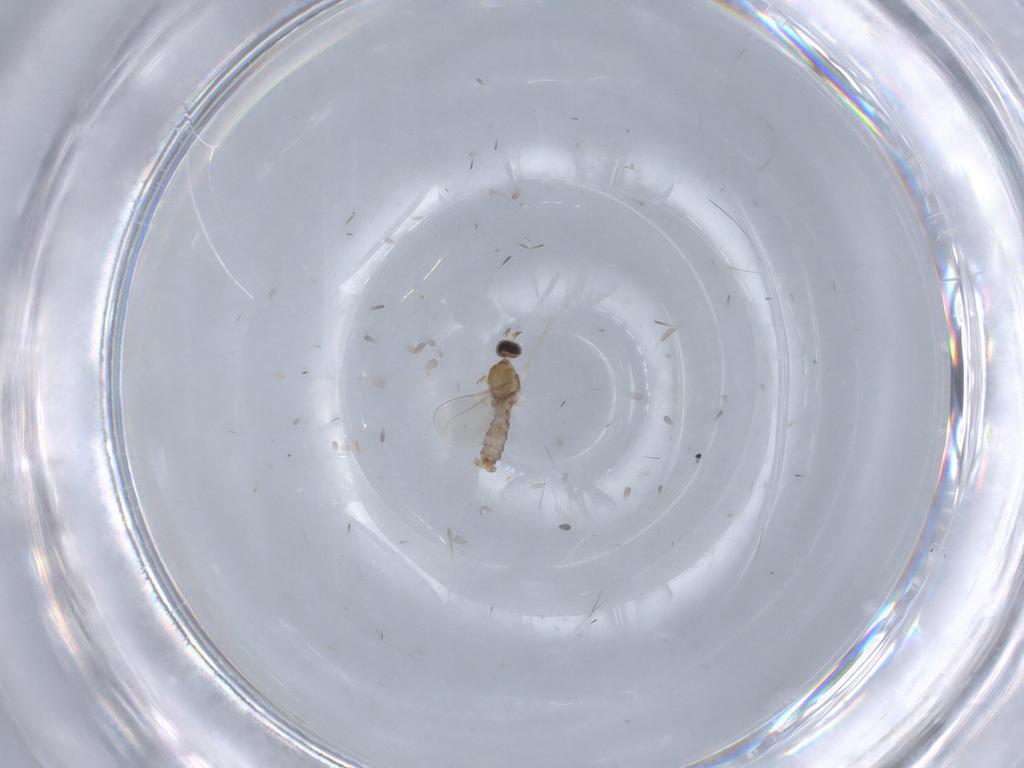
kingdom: Animalia
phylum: Arthropoda
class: Insecta
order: Diptera
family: Cecidomyiidae
